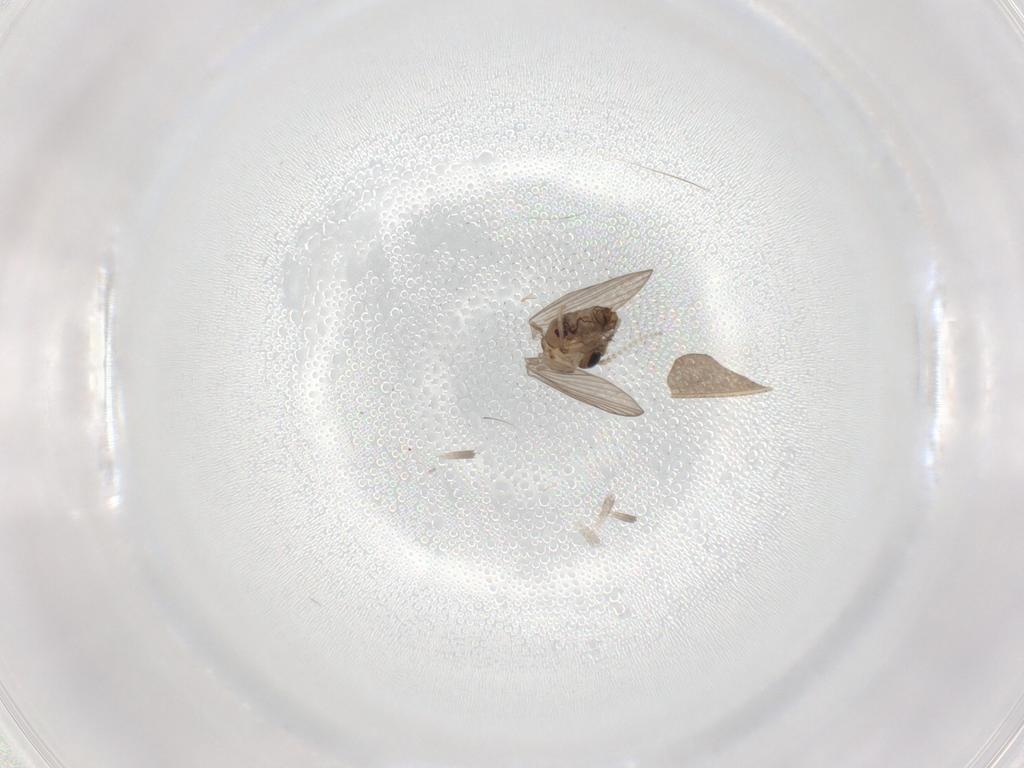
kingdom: Animalia
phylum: Arthropoda
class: Insecta
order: Diptera
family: Psychodidae
